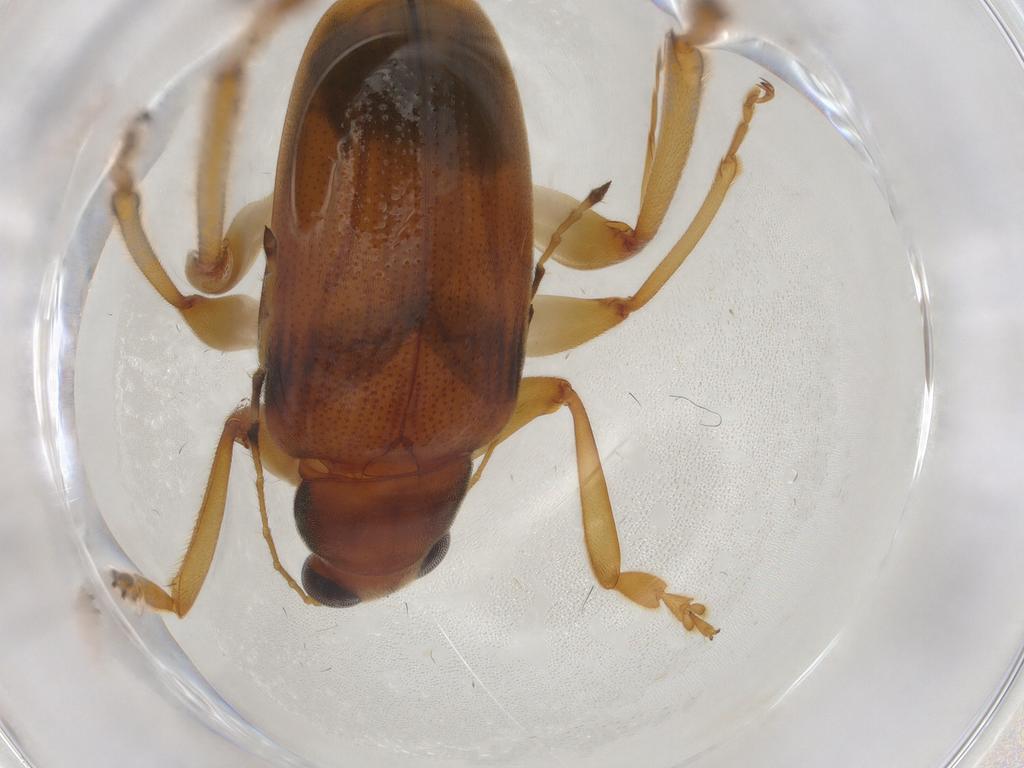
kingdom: Animalia
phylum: Arthropoda
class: Insecta
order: Coleoptera
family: Chrysomelidae
